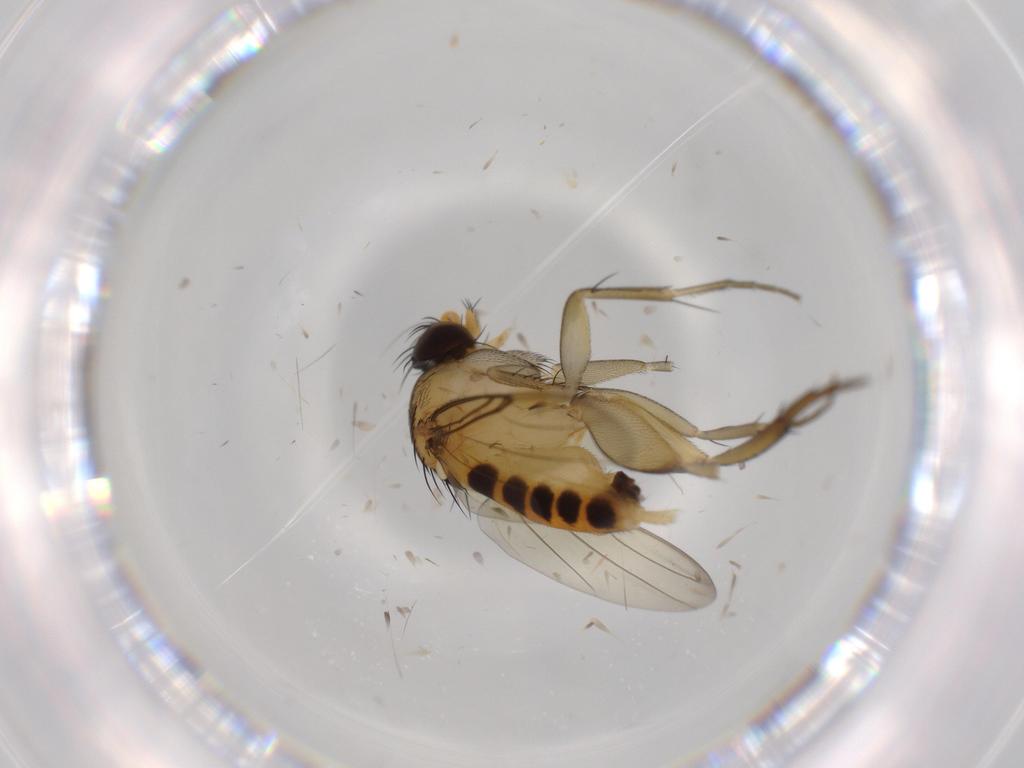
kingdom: Animalia
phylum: Arthropoda
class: Insecta
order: Diptera
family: Phoridae
